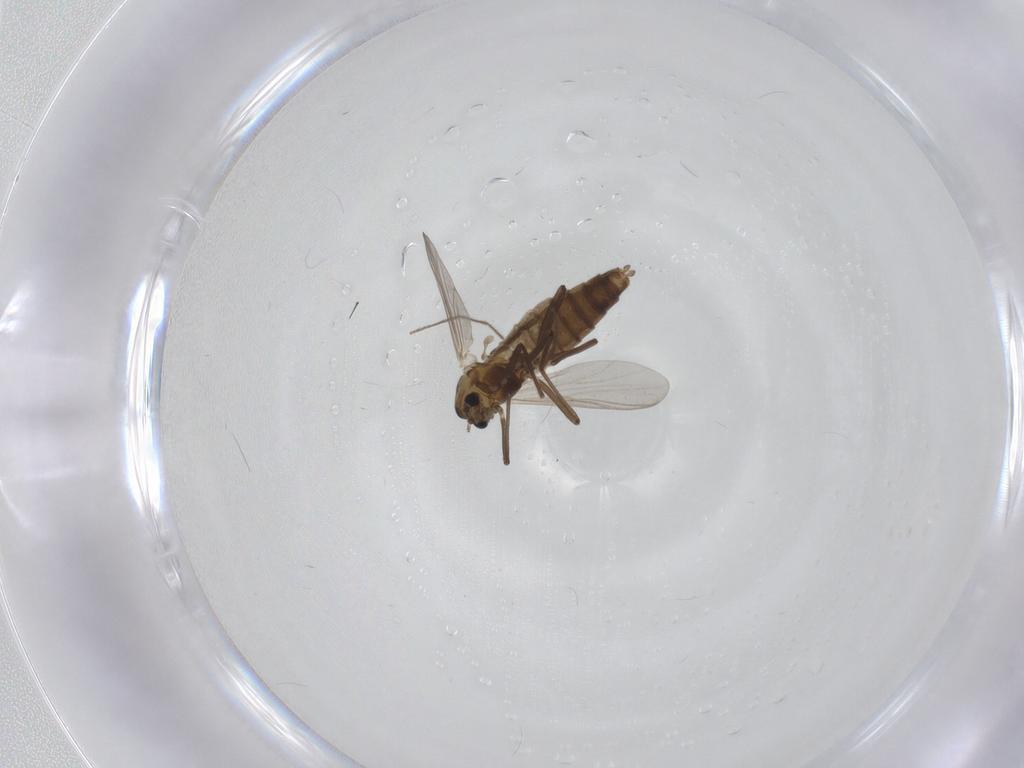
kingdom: Animalia
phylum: Arthropoda
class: Insecta
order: Diptera
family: Chironomidae
